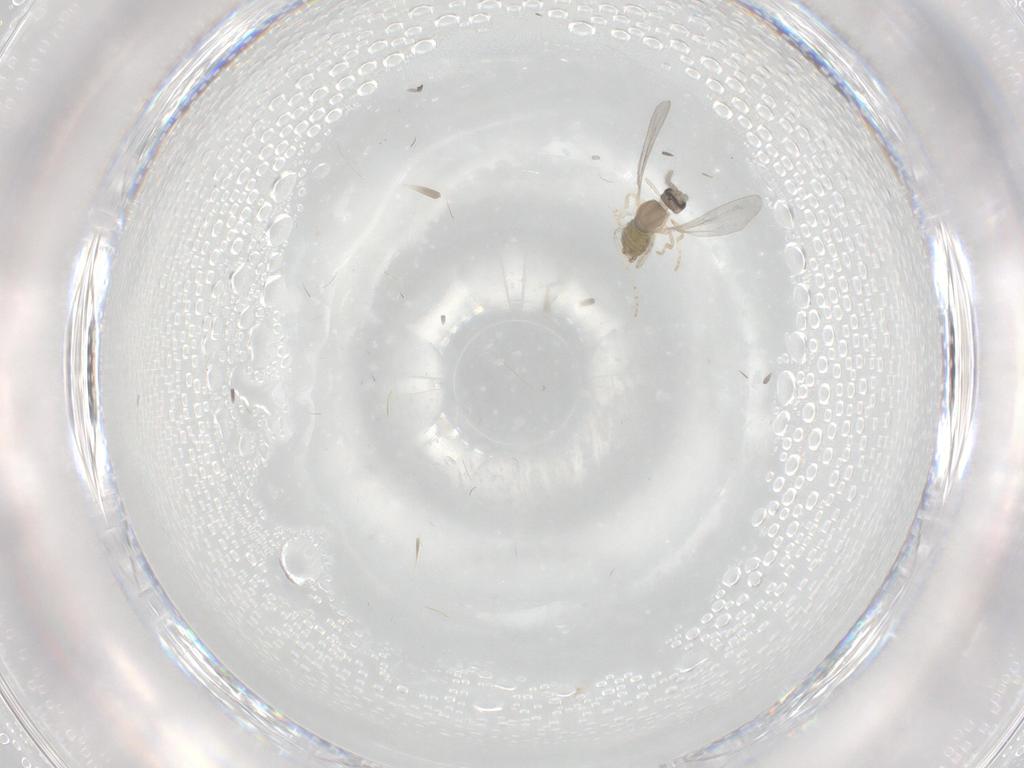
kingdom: Animalia
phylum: Arthropoda
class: Insecta
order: Diptera
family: Cecidomyiidae
